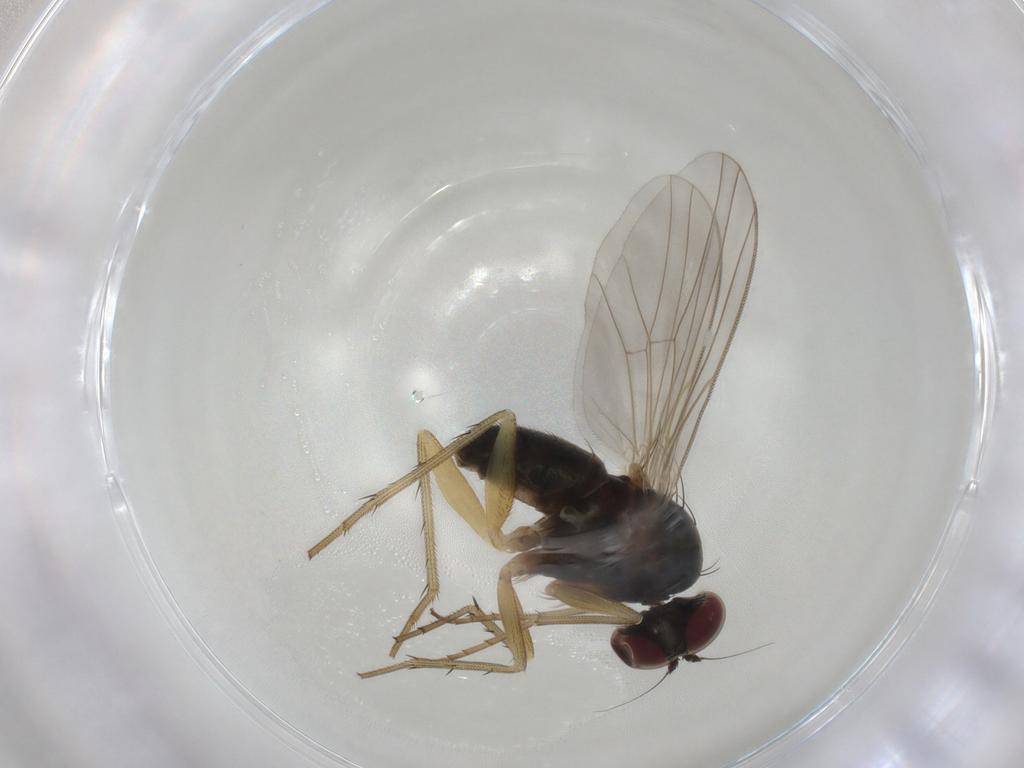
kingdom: Animalia
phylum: Arthropoda
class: Insecta
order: Diptera
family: Dolichopodidae
